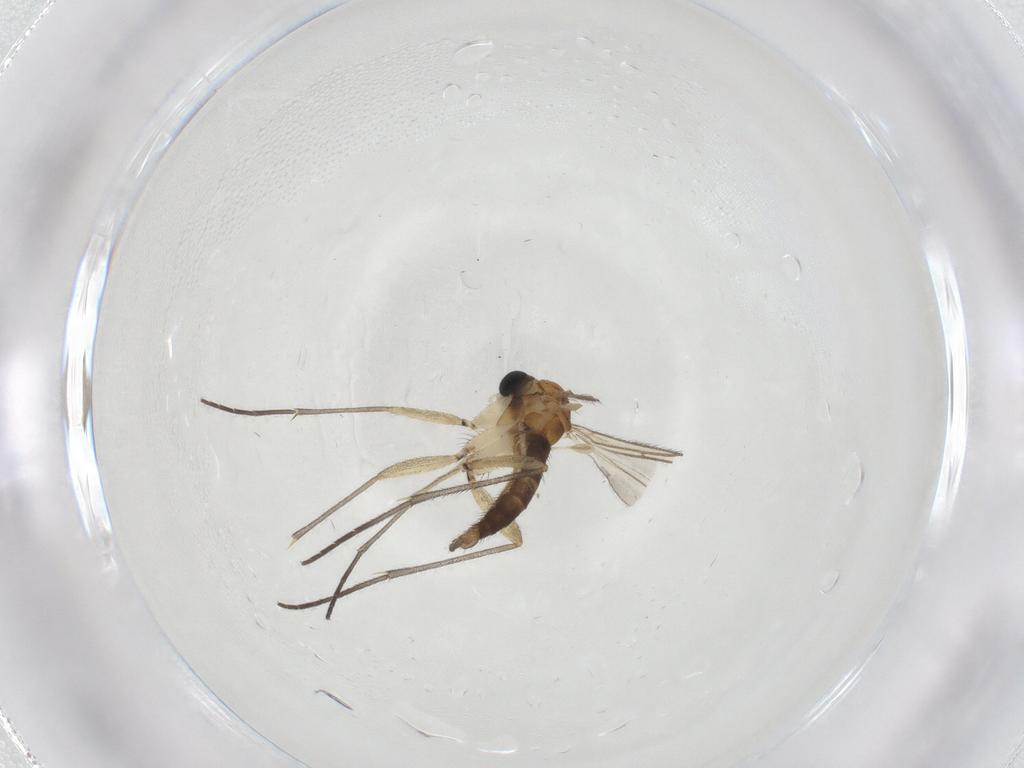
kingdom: Animalia
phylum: Arthropoda
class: Insecta
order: Diptera
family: Sciaridae
